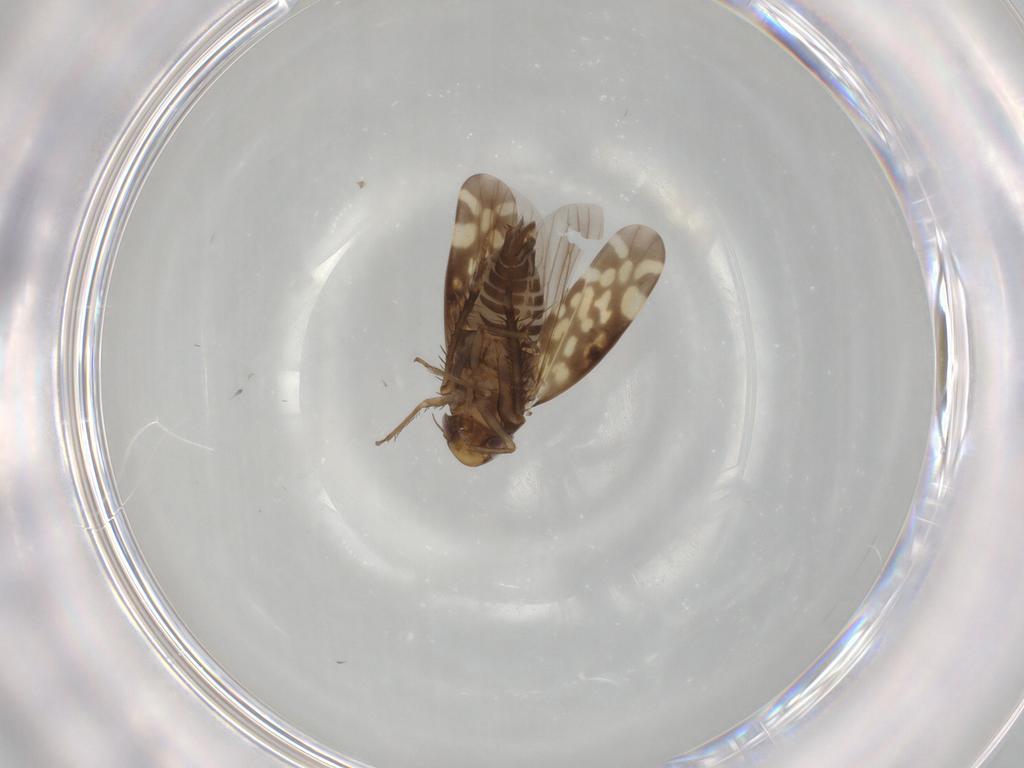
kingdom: Animalia
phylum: Arthropoda
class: Insecta
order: Hemiptera
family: Cicadellidae
